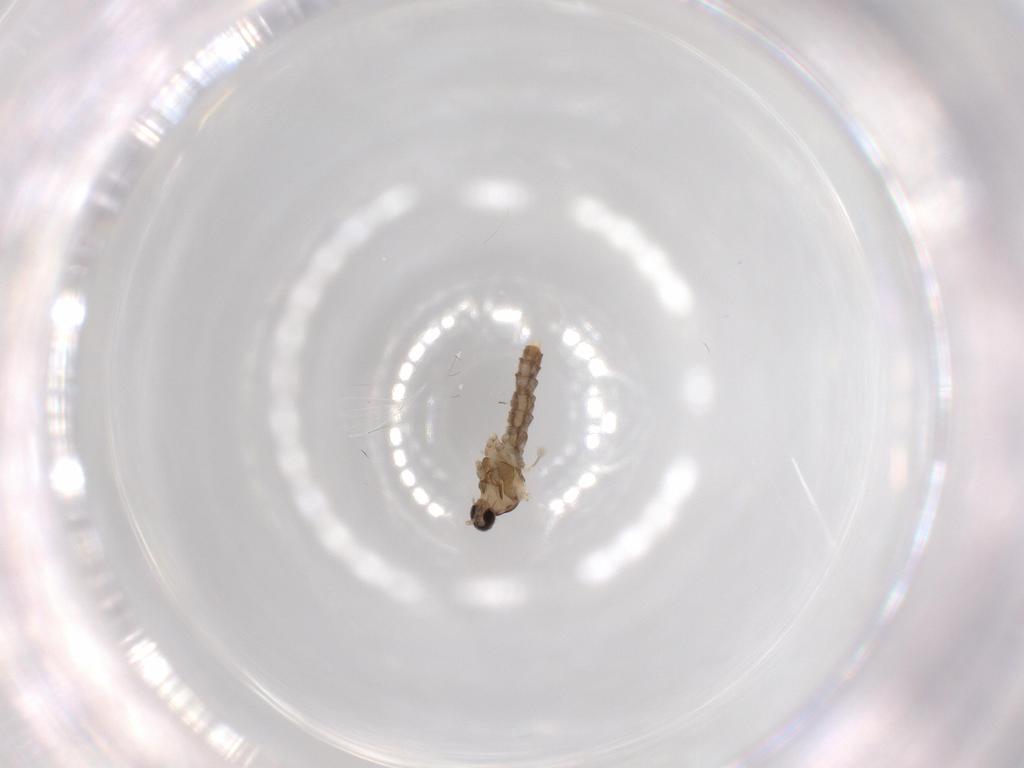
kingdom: Animalia
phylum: Arthropoda
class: Insecta
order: Diptera
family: Cecidomyiidae
